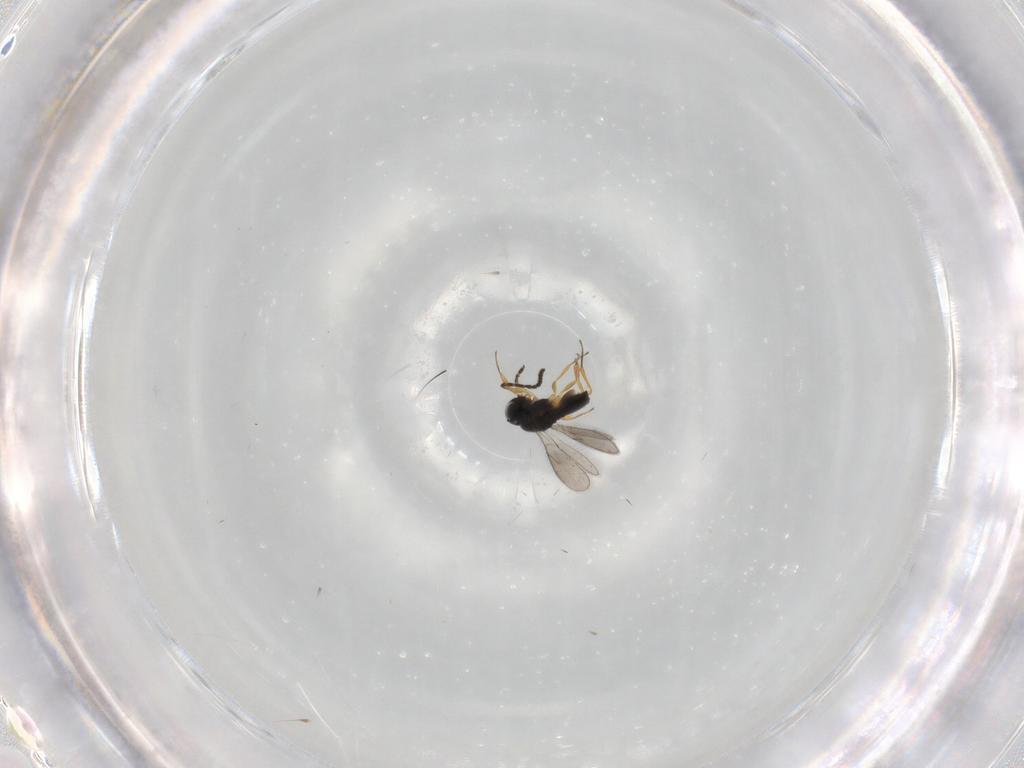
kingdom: Animalia
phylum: Arthropoda
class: Insecta
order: Hymenoptera
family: Scelionidae
